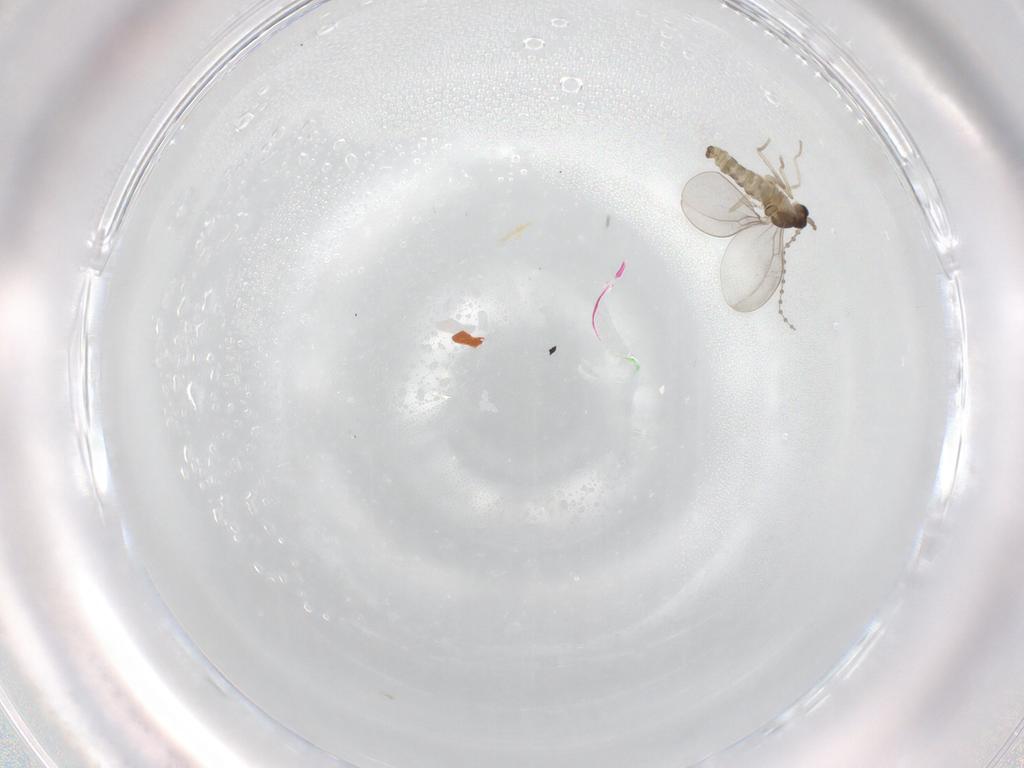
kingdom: Animalia
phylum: Arthropoda
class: Insecta
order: Diptera
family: Cecidomyiidae
